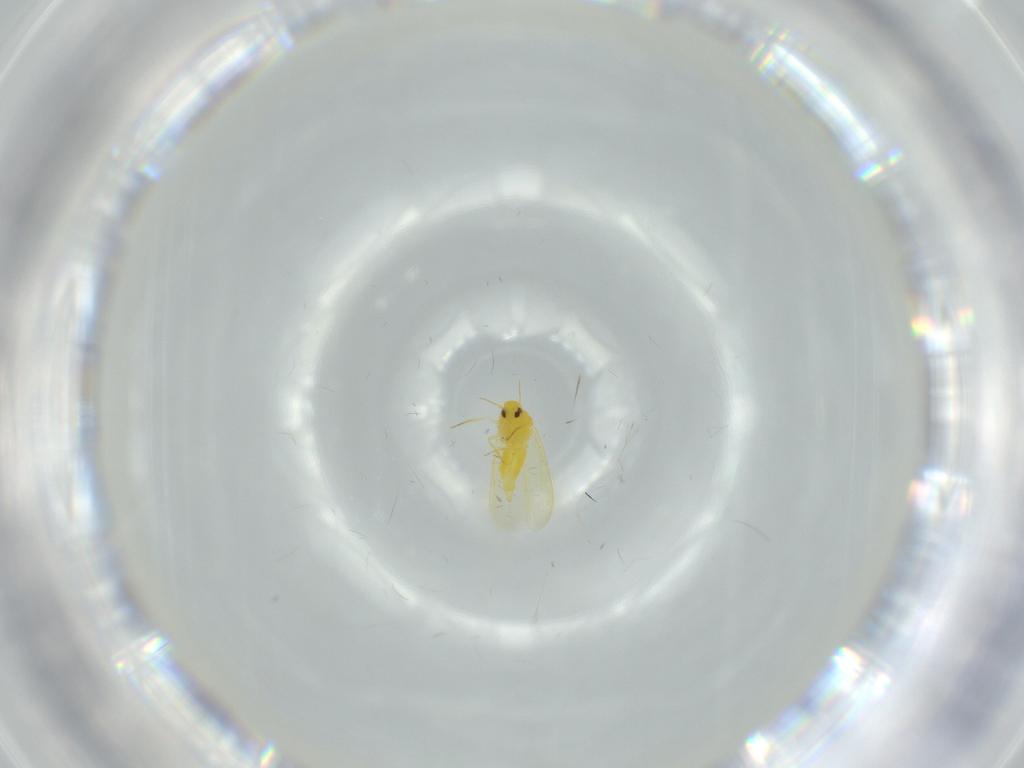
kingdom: Animalia
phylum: Arthropoda
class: Insecta
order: Hemiptera
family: Aleyrodidae
